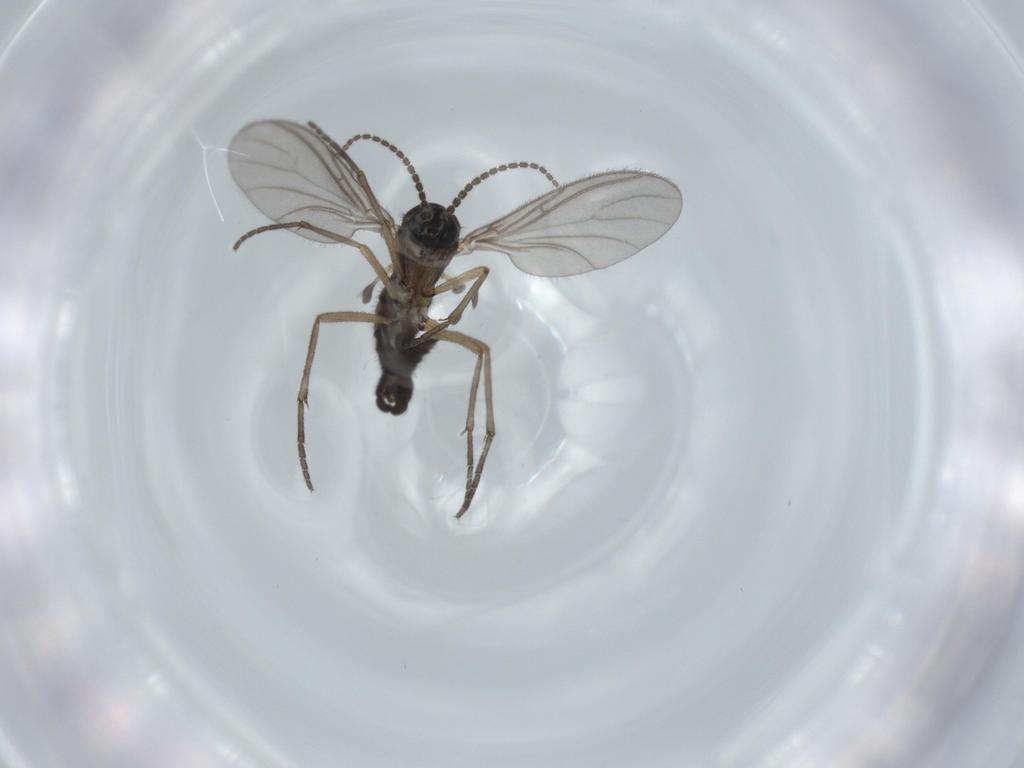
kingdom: Animalia
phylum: Arthropoda
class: Insecta
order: Diptera
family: Sciaridae
